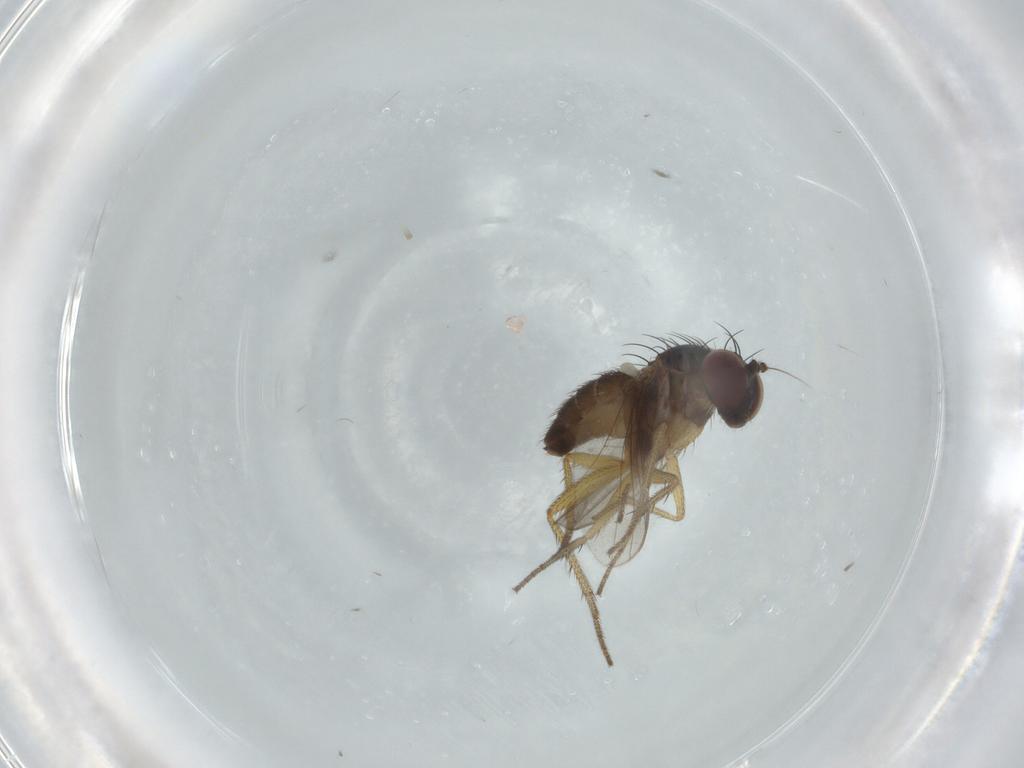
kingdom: Animalia
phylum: Arthropoda
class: Insecta
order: Diptera
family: Dolichopodidae
